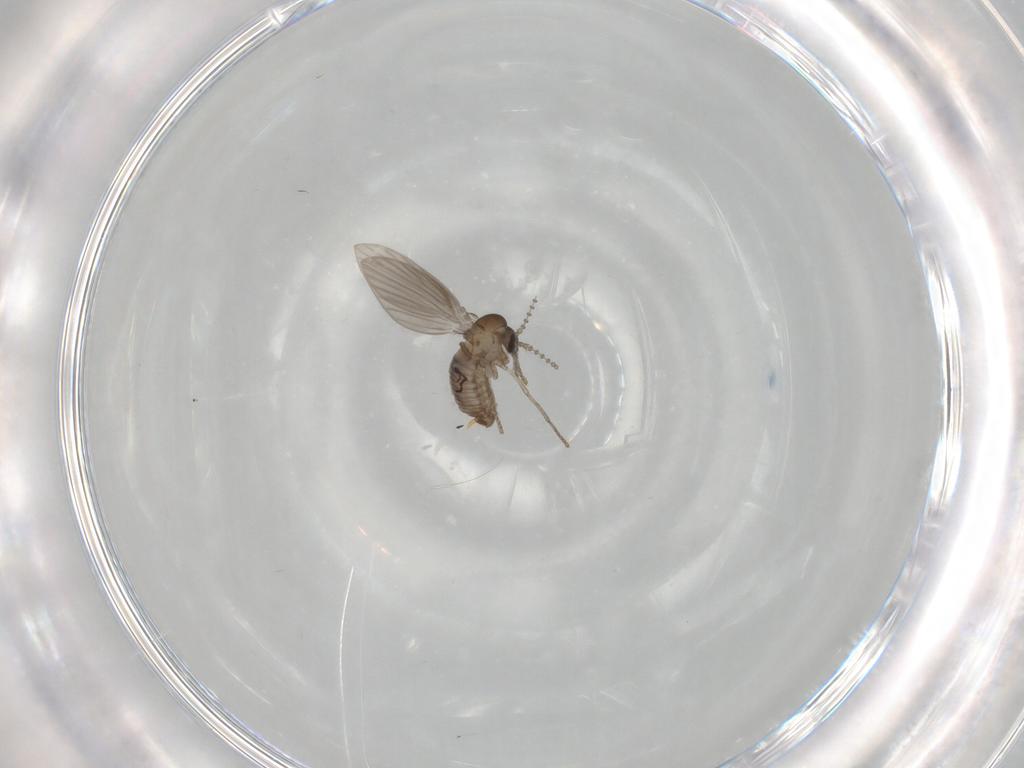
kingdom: Animalia
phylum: Arthropoda
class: Insecta
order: Diptera
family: Psychodidae
